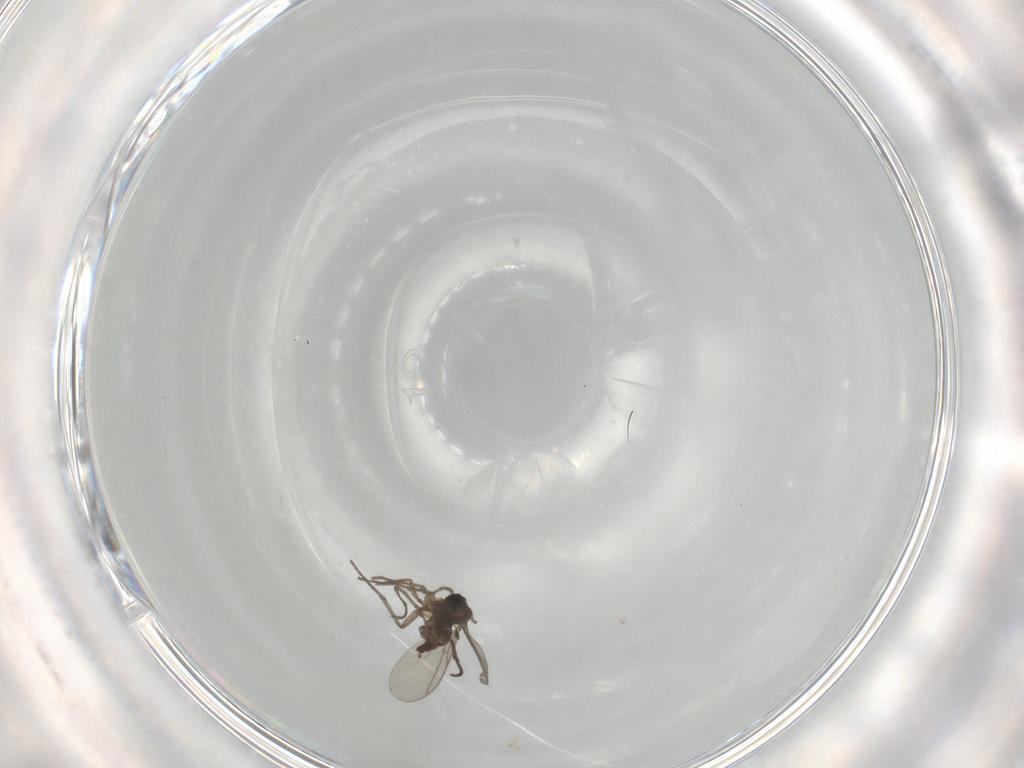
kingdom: Animalia
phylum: Arthropoda
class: Insecta
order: Diptera
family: Sciaridae
